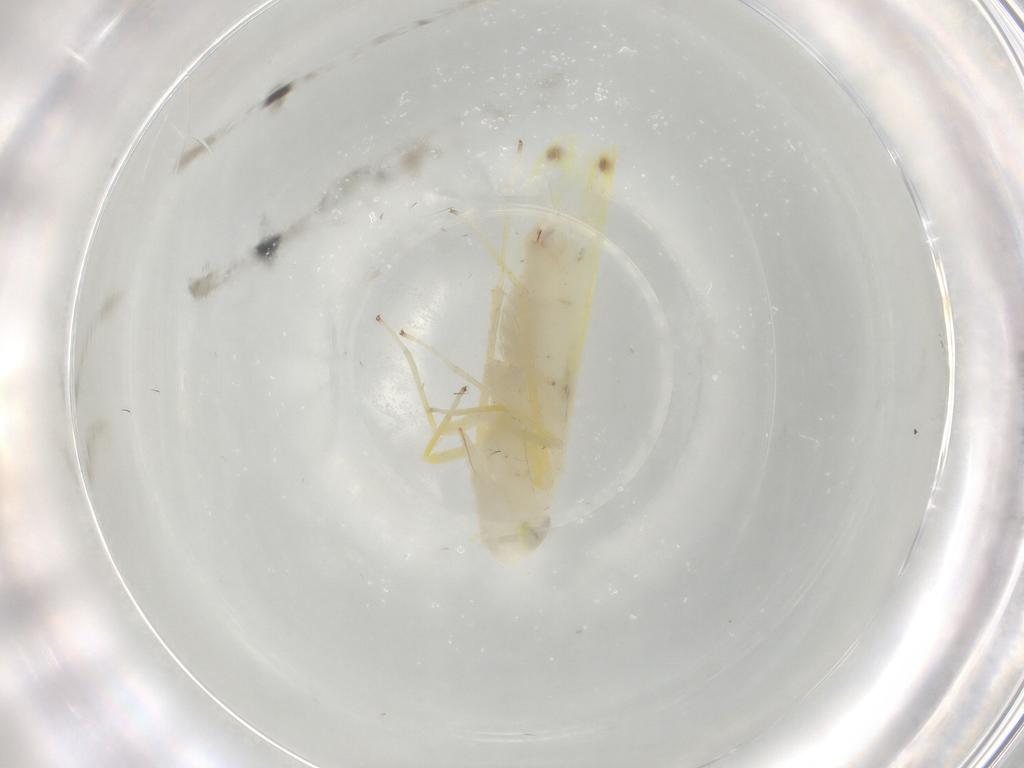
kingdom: Animalia
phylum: Arthropoda
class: Insecta
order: Hemiptera
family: Cicadellidae
